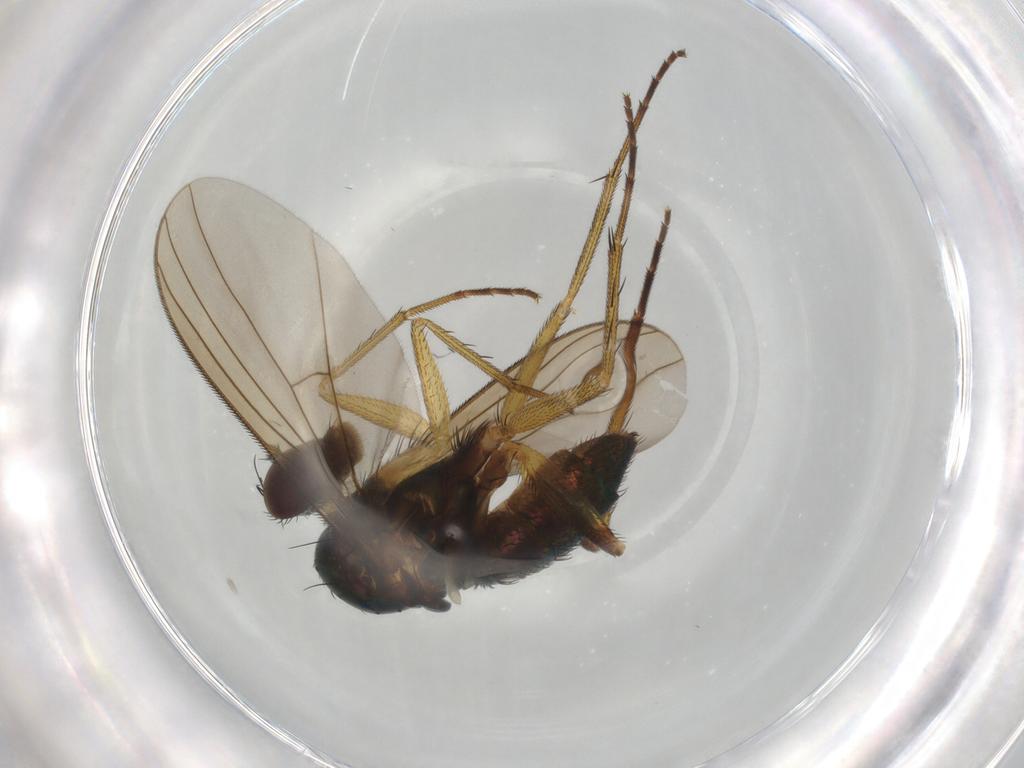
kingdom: Animalia
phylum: Arthropoda
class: Insecta
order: Diptera
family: Dolichopodidae
